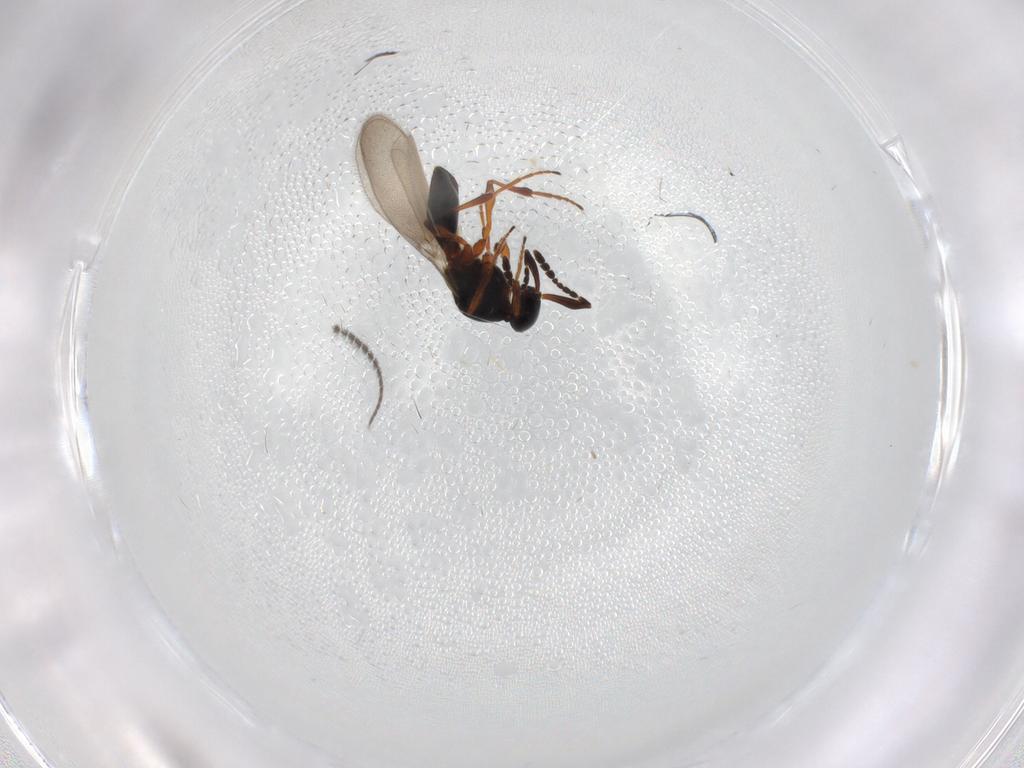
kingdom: Animalia
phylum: Arthropoda
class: Insecta
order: Hymenoptera
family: Platygastridae
